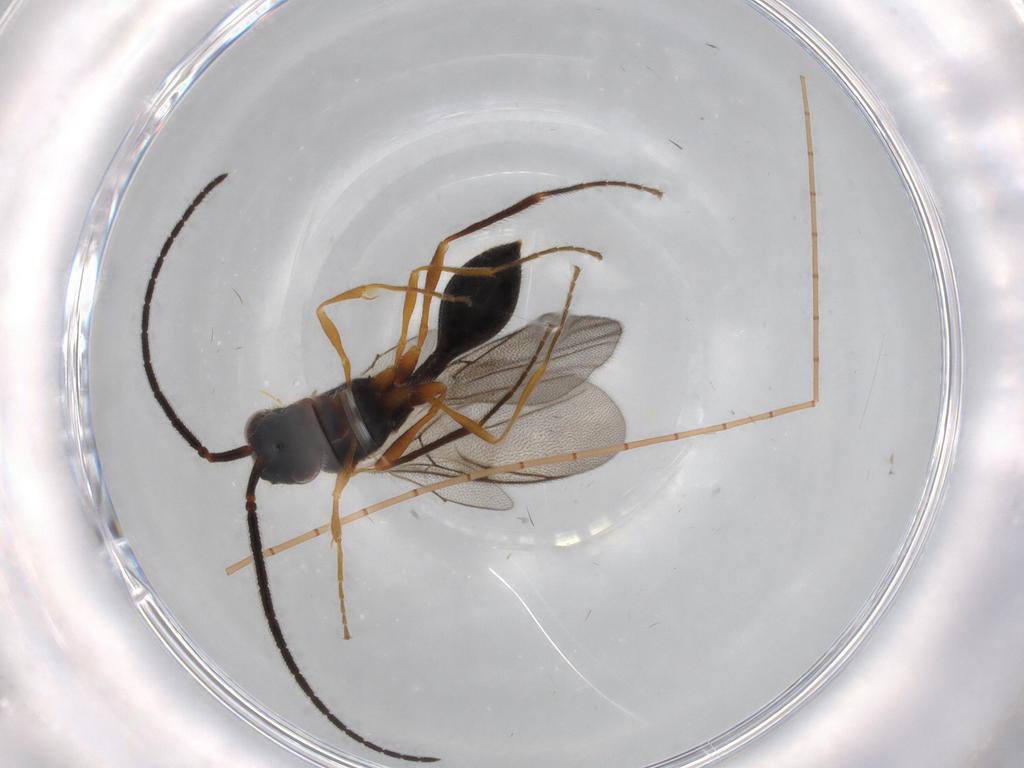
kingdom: Animalia
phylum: Arthropoda
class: Insecta
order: Hymenoptera
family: Diapriidae
